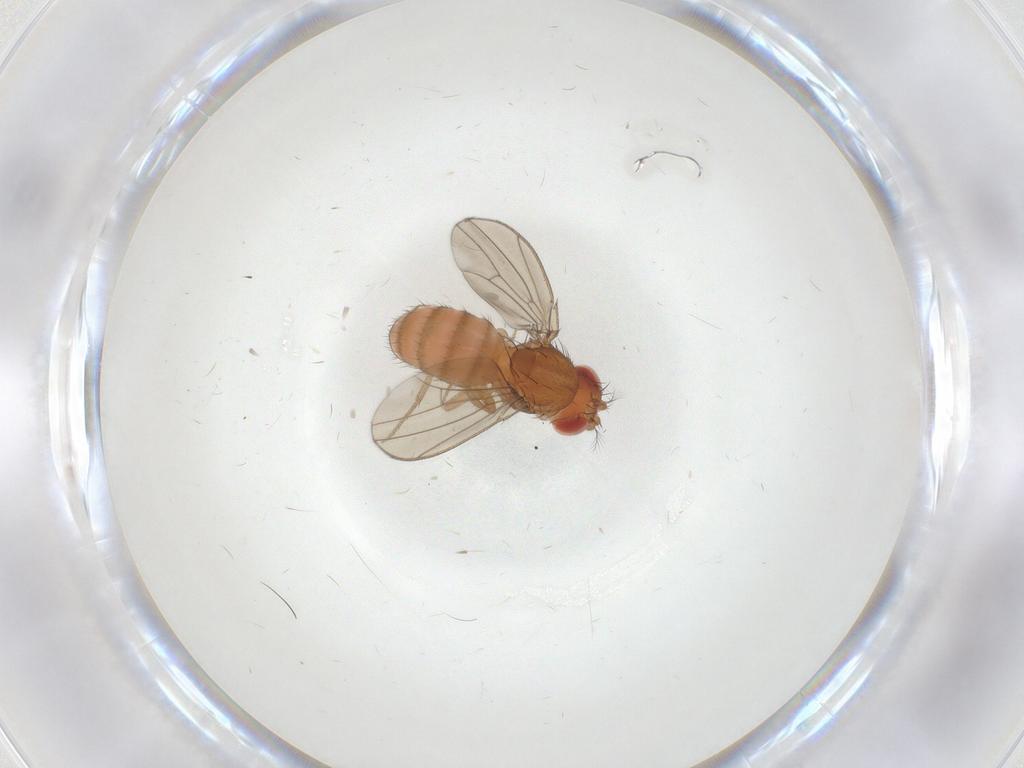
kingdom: Animalia
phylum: Arthropoda
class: Insecta
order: Diptera
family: Drosophilidae
